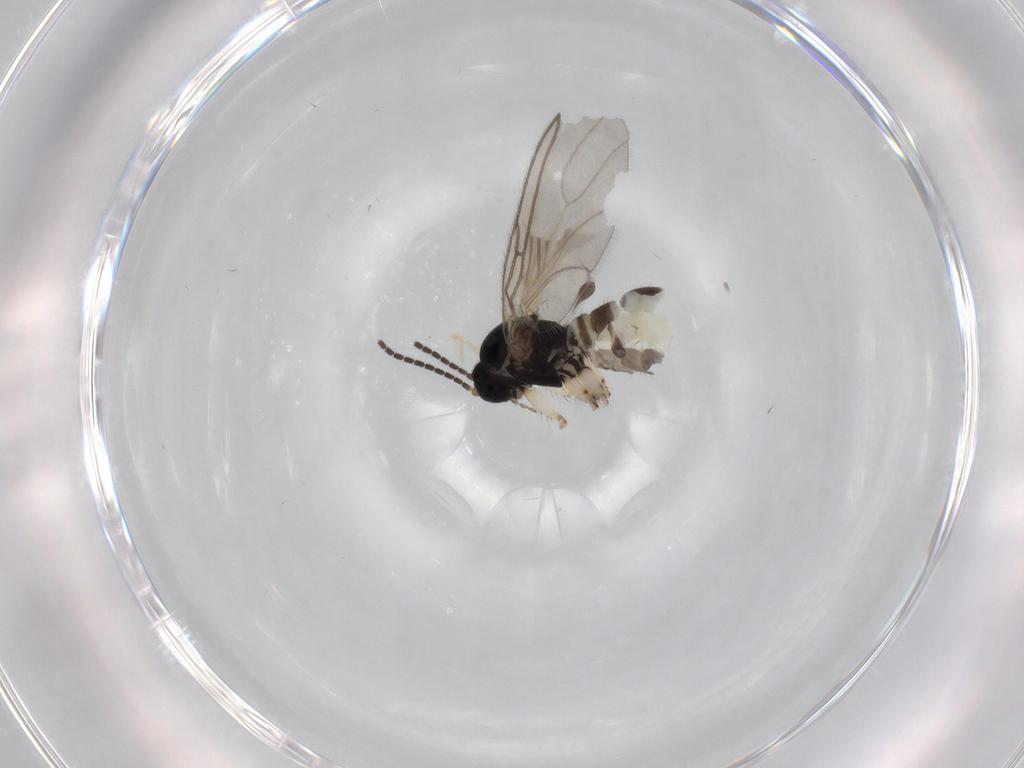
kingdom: Animalia
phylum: Arthropoda
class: Insecta
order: Diptera
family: Sciaridae
